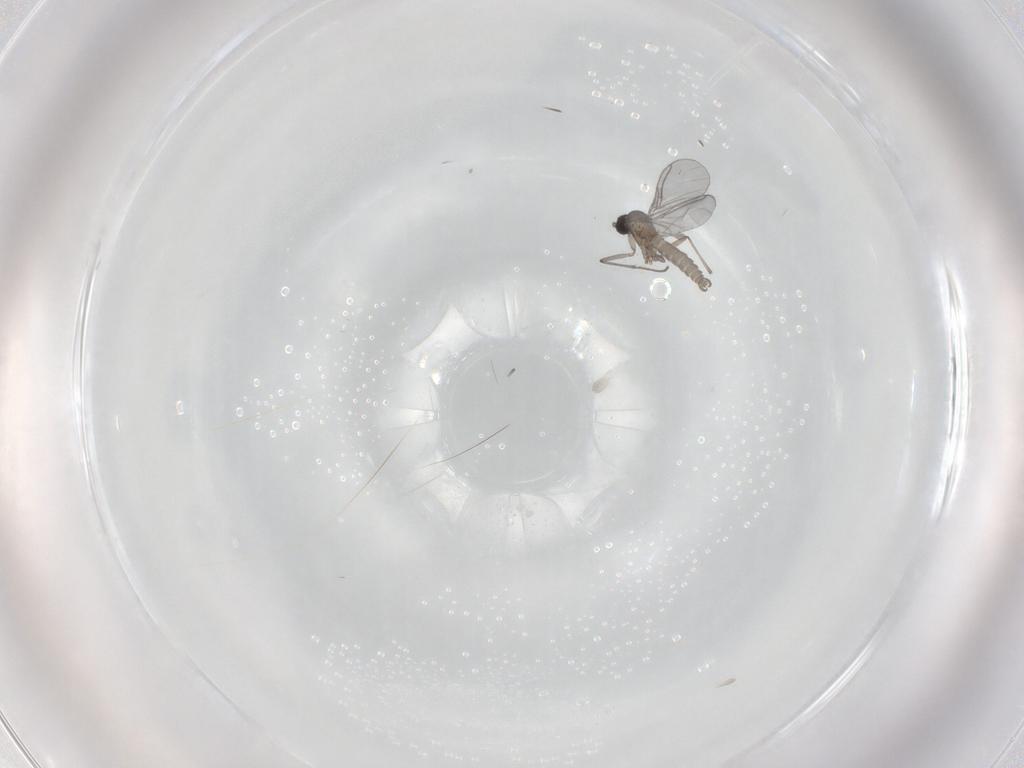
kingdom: Animalia
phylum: Arthropoda
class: Insecta
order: Diptera
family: Sciaridae
